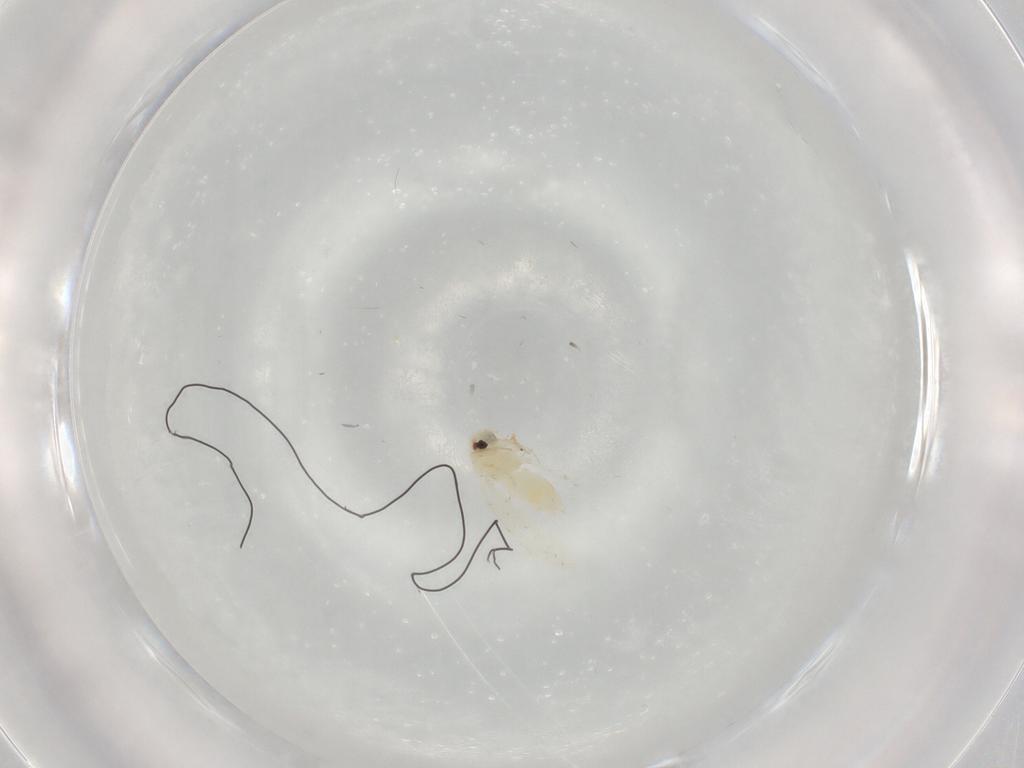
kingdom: Animalia
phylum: Arthropoda
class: Insecta
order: Hemiptera
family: Aleyrodidae
